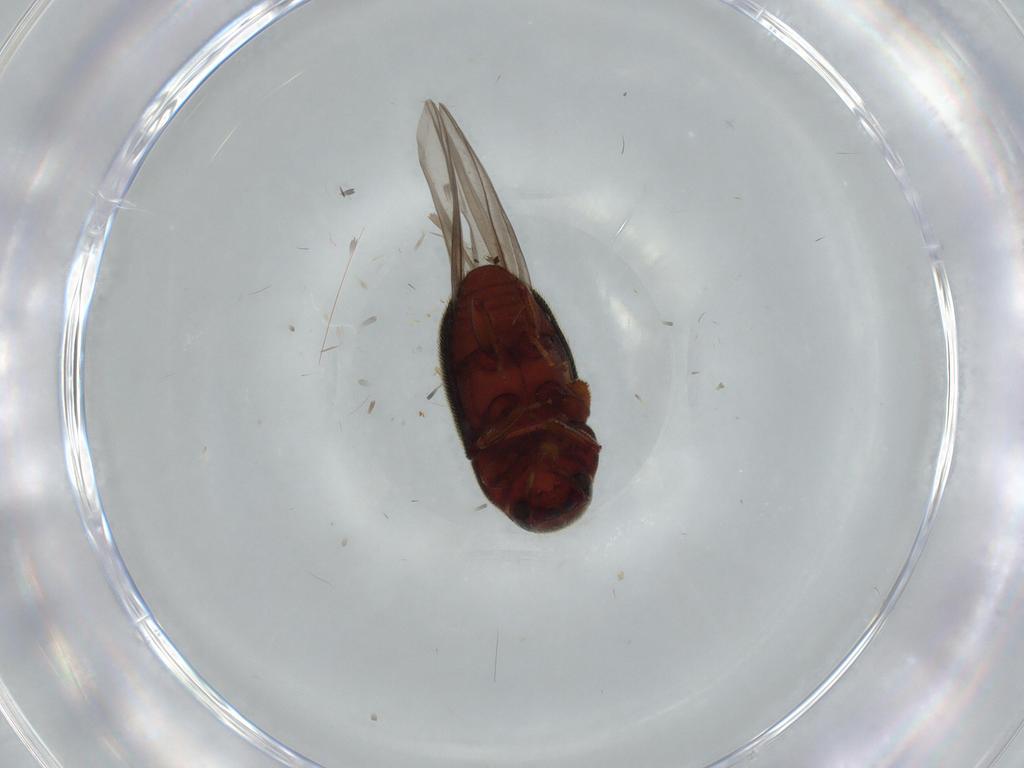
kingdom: Animalia
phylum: Arthropoda
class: Insecta
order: Coleoptera
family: Curculionidae
